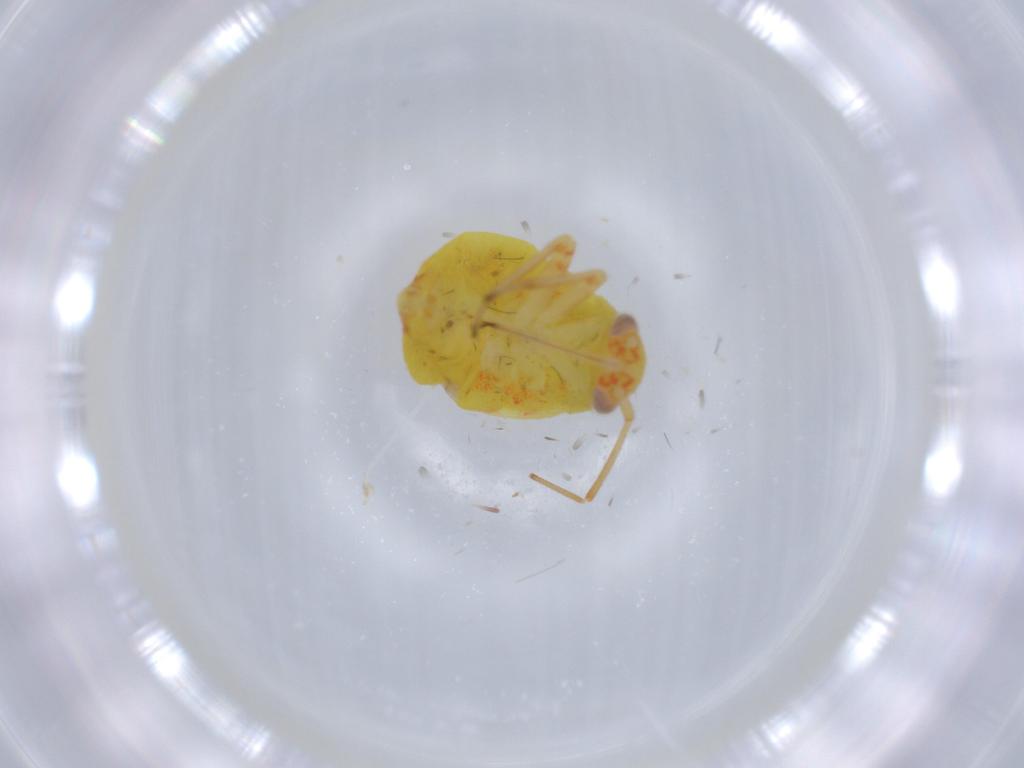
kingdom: Animalia
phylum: Arthropoda
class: Insecta
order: Hemiptera
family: Miridae
